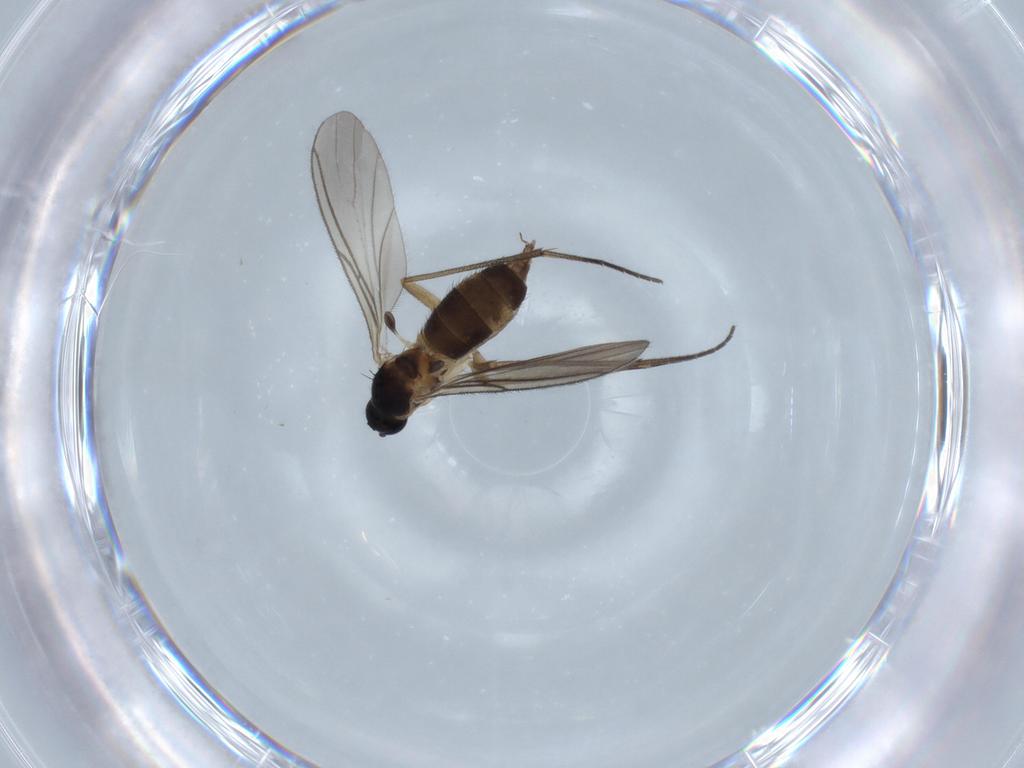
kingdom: Animalia
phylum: Arthropoda
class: Insecta
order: Diptera
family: Sciaridae
